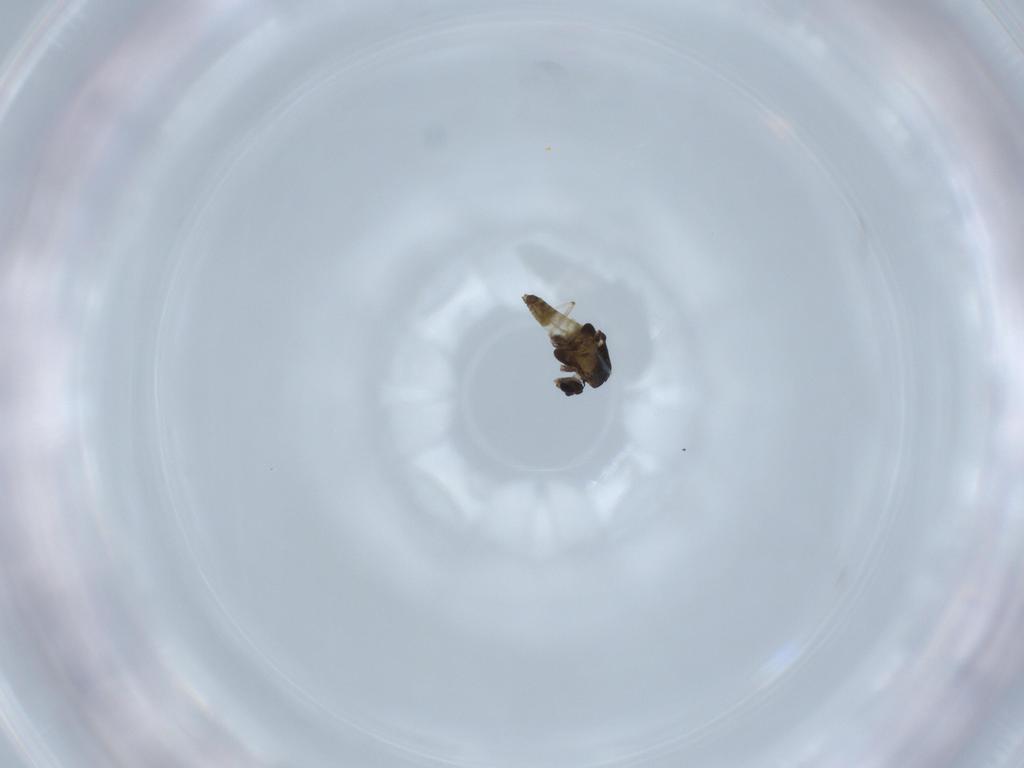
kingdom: Animalia
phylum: Arthropoda
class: Insecta
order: Diptera
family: Chironomidae
